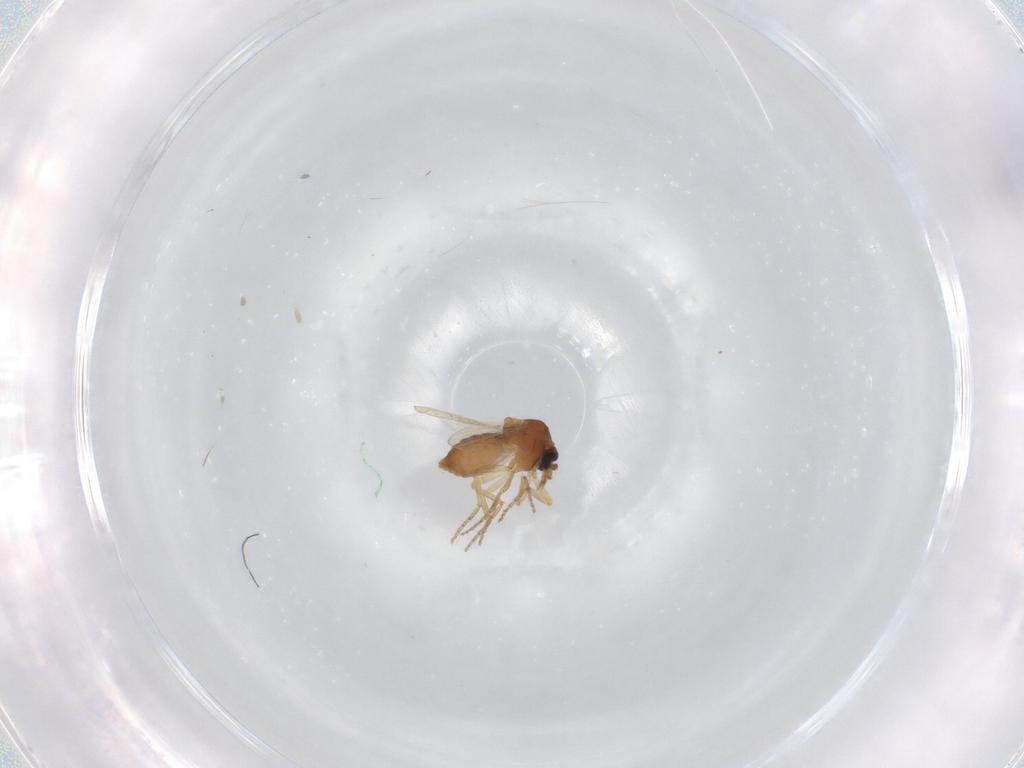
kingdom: Animalia
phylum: Arthropoda
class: Insecta
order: Diptera
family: Ceratopogonidae
